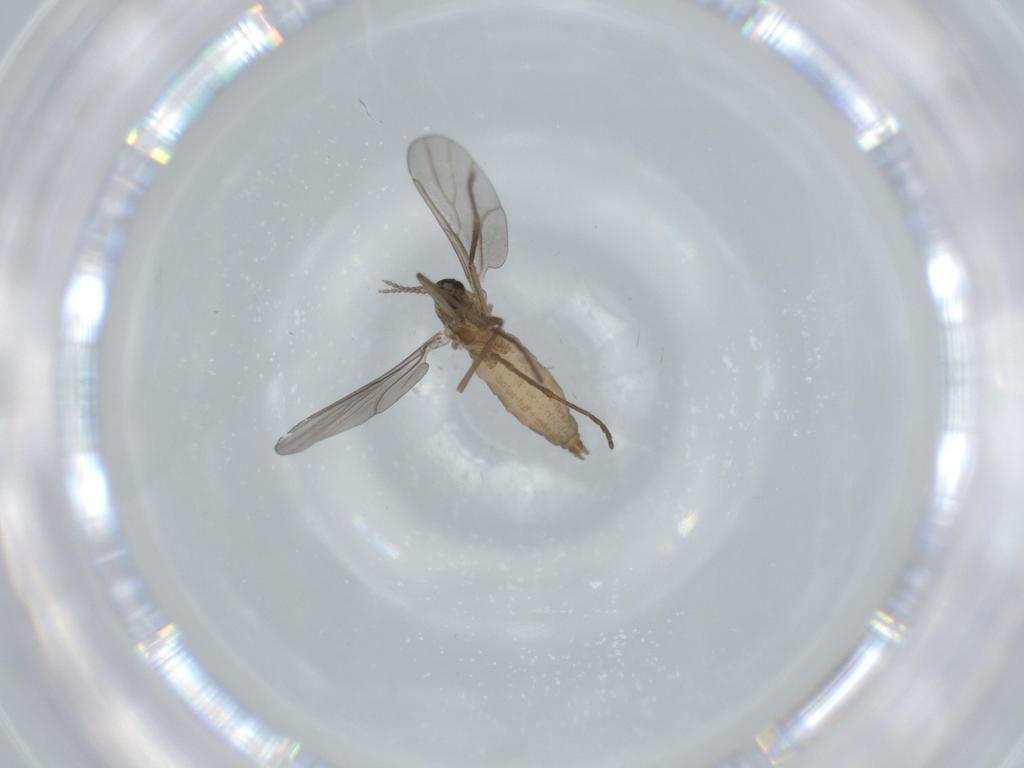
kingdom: Animalia
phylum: Arthropoda
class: Insecta
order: Diptera
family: Cecidomyiidae
